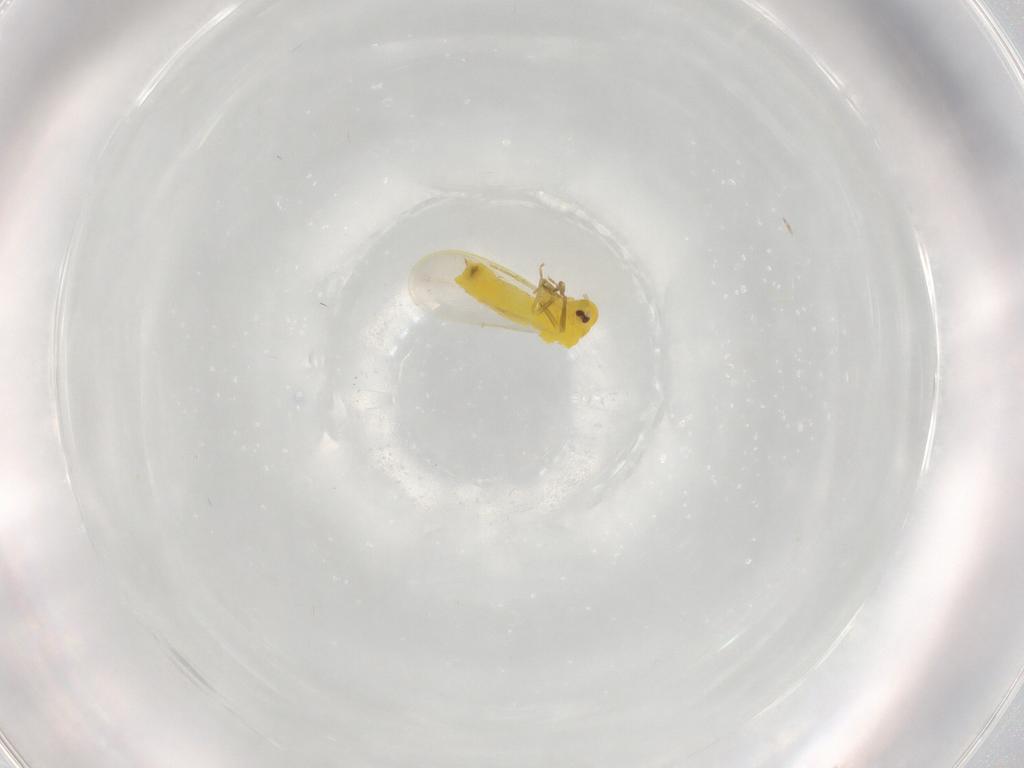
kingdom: Animalia
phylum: Arthropoda
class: Insecta
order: Hemiptera
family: Aleyrodidae
